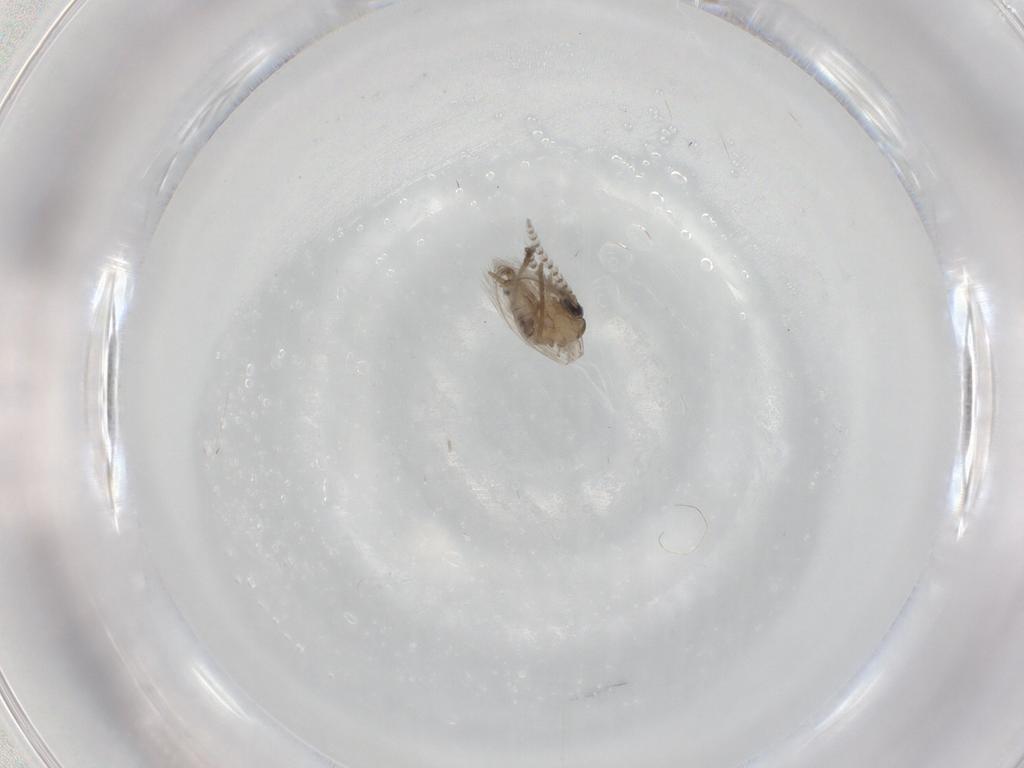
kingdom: Animalia
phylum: Arthropoda
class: Insecta
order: Diptera
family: Psychodidae
